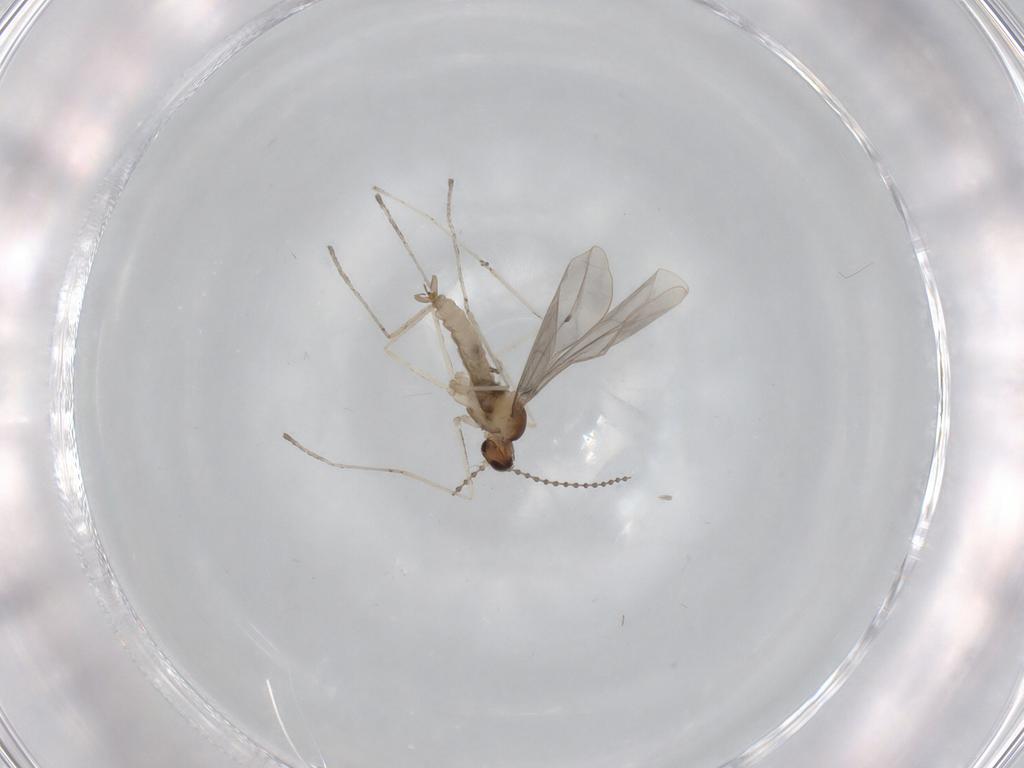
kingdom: Animalia
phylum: Arthropoda
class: Insecta
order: Diptera
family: Cecidomyiidae
